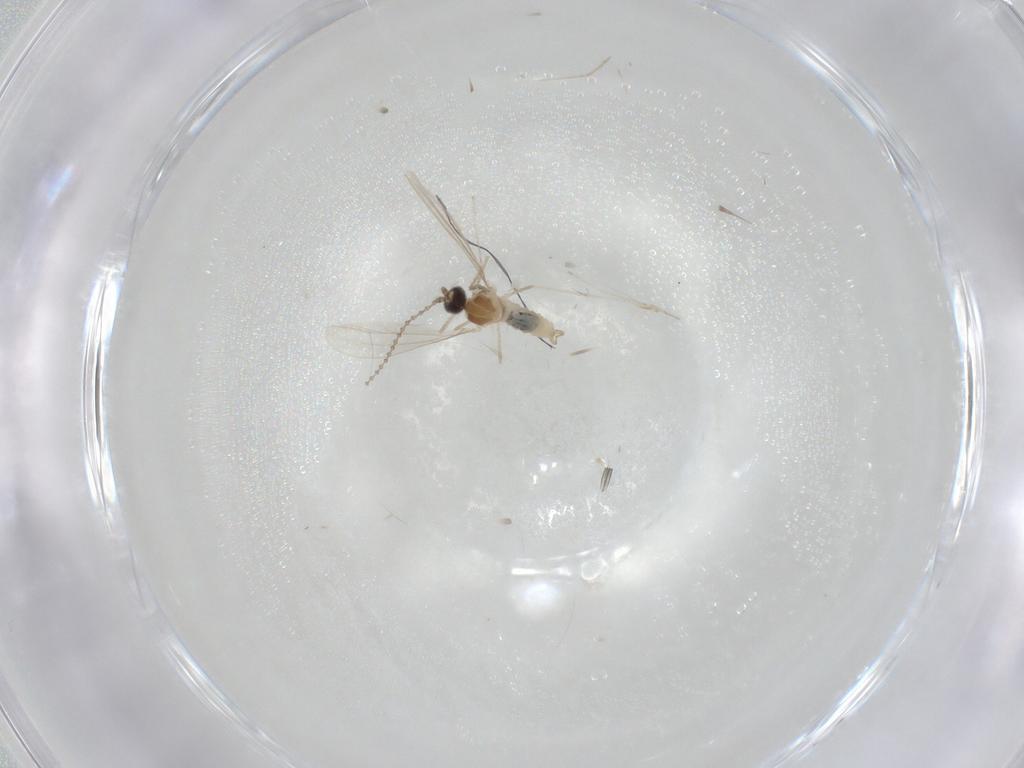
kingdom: Animalia
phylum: Arthropoda
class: Insecta
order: Diptera
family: Cecidomyiidae
